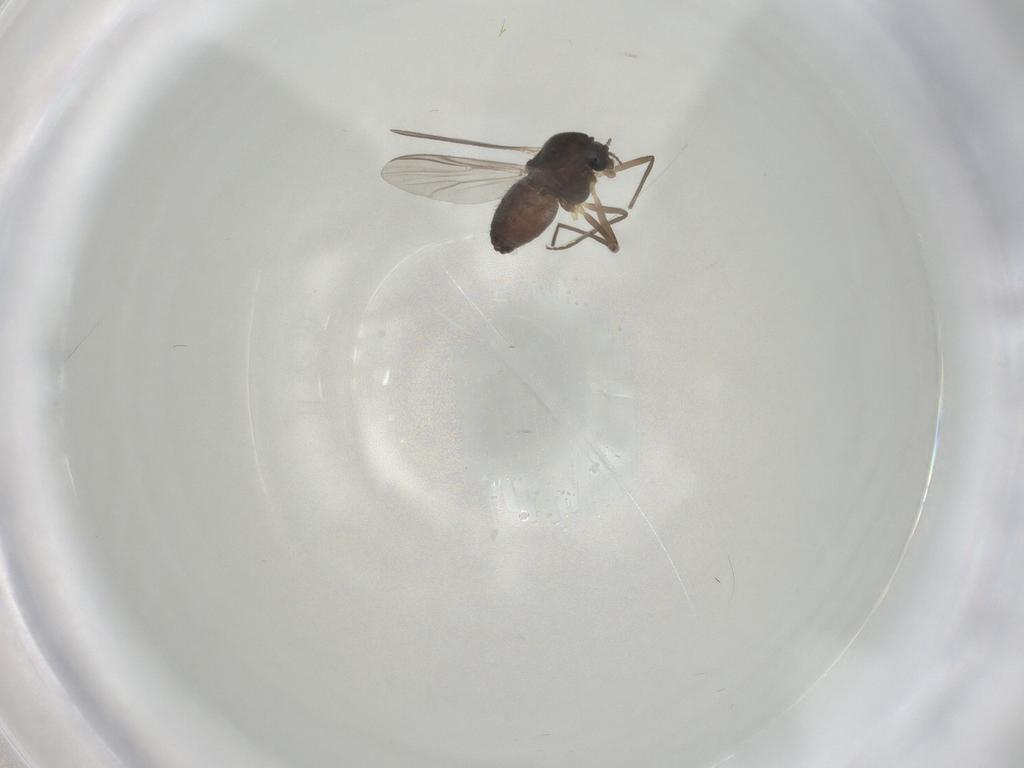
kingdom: Animalia
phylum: Arthropoda
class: Insecta
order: Diptera
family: Chironomidae
